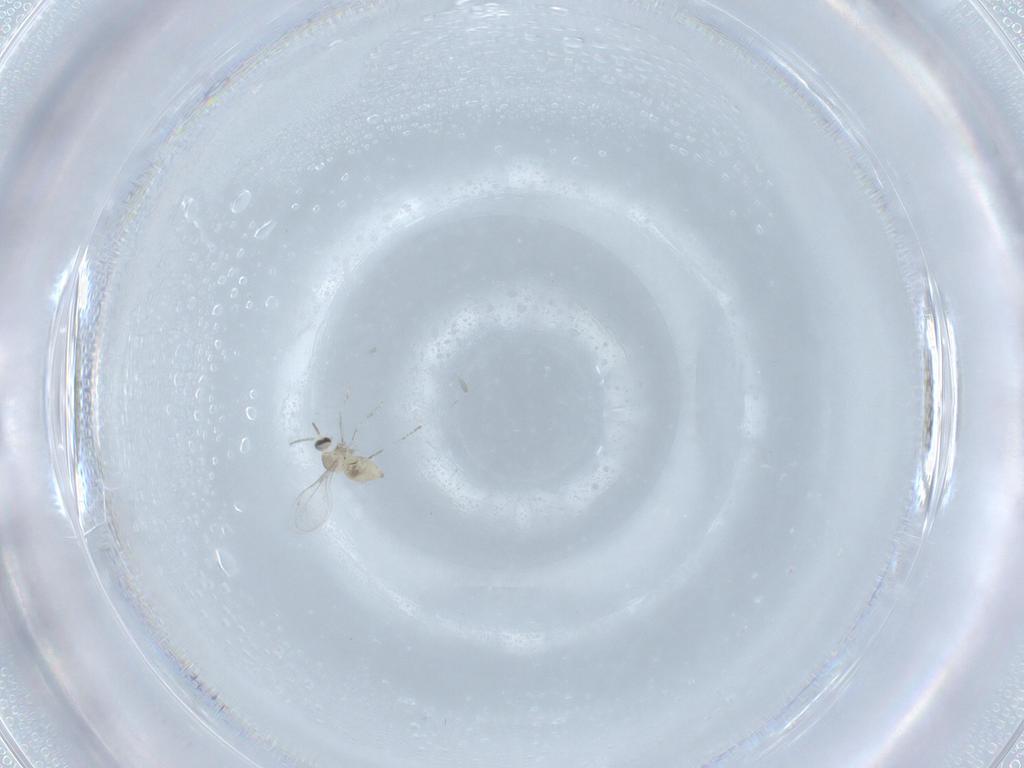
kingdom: Animalia
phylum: Arthropoda
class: Insecta
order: Diptera
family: Cecidomyiidae
